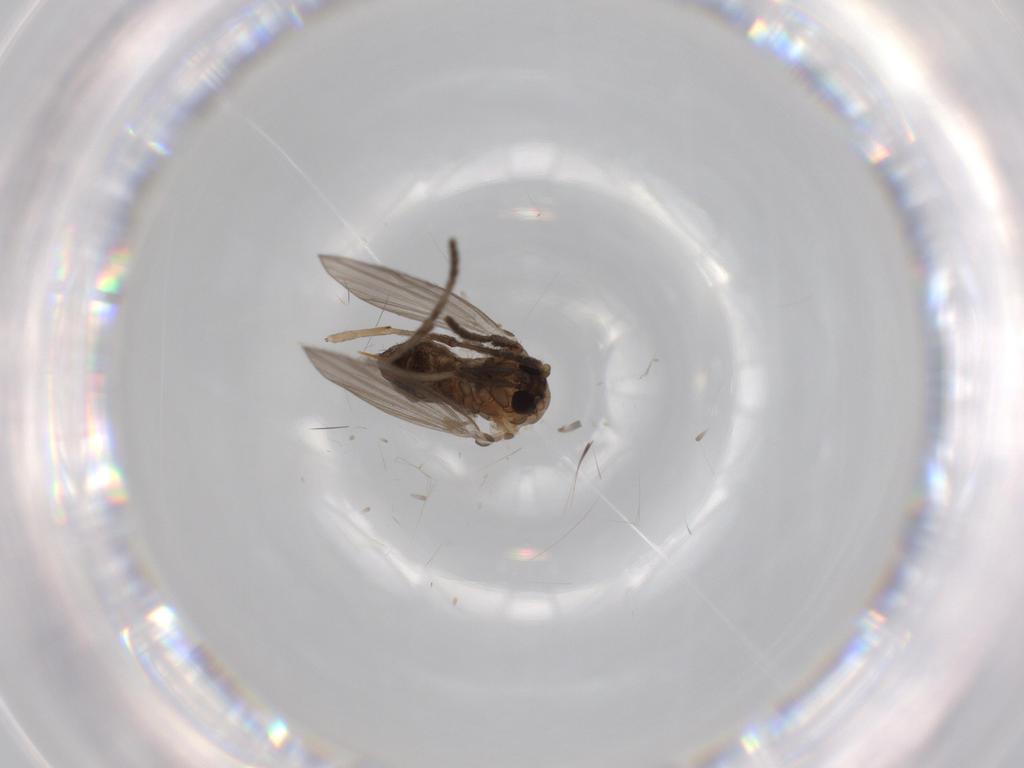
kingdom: Animalia
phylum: Arthropoda
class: Insecta
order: Diptera
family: Psychodidae
